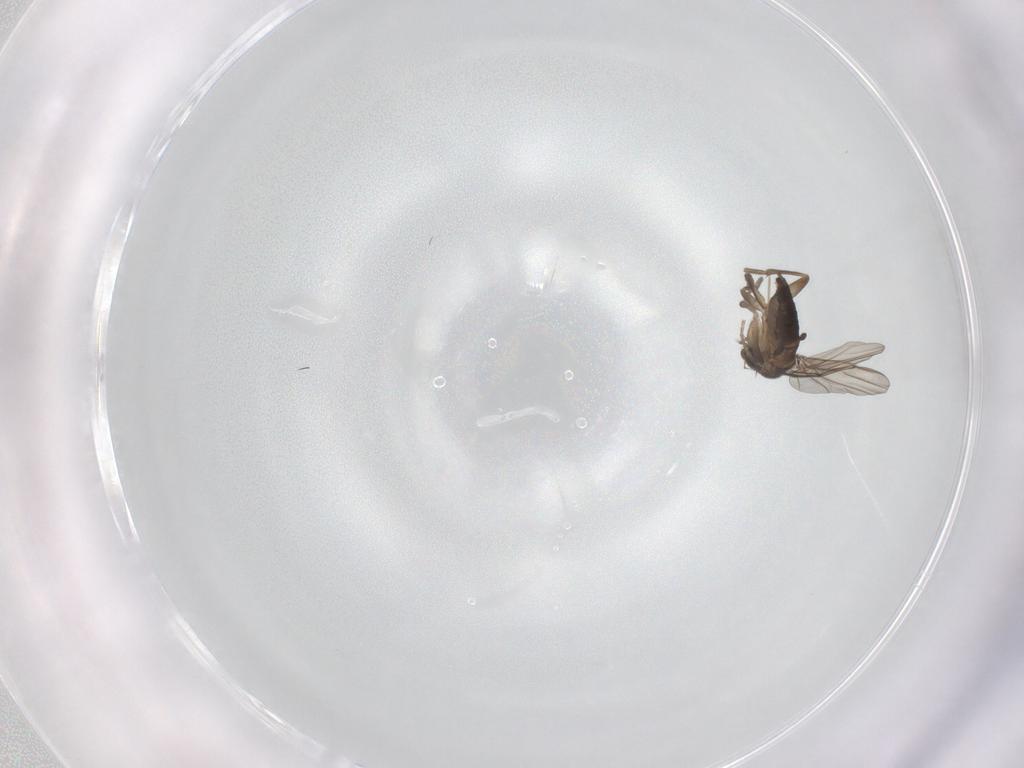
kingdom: Animalia
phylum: Arthropoda
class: Insecta
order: Diptera
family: Phoridae
